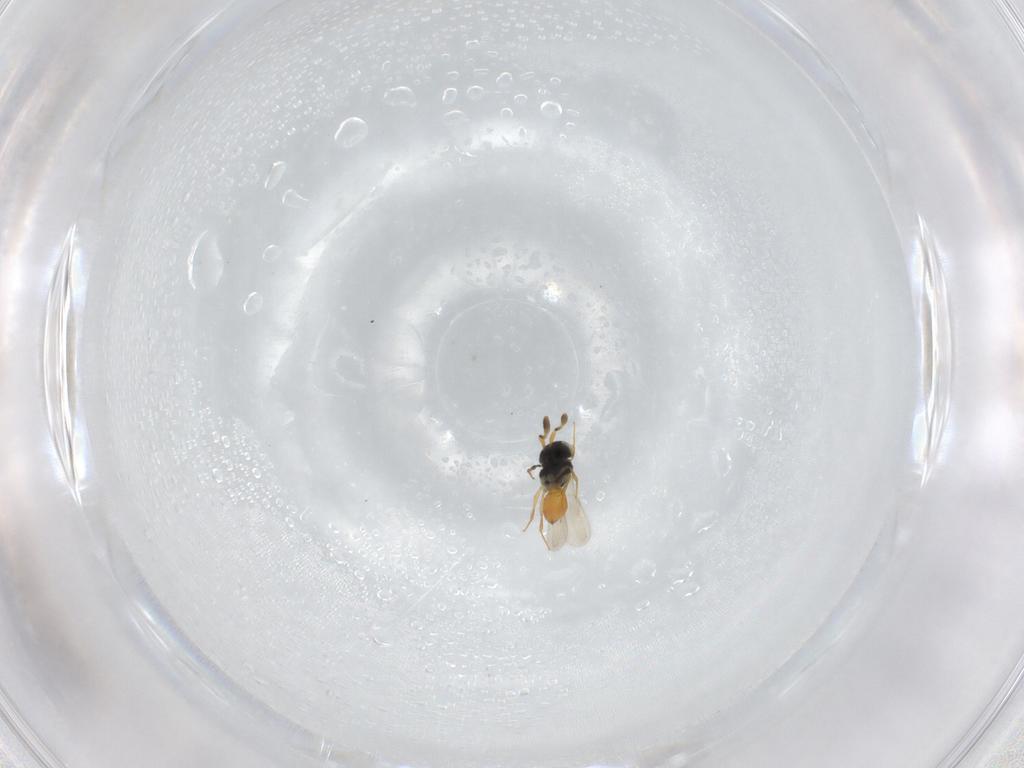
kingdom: Animalia
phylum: Arthropoda
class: Insecta
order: Hymenoptera
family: Scelionidae
